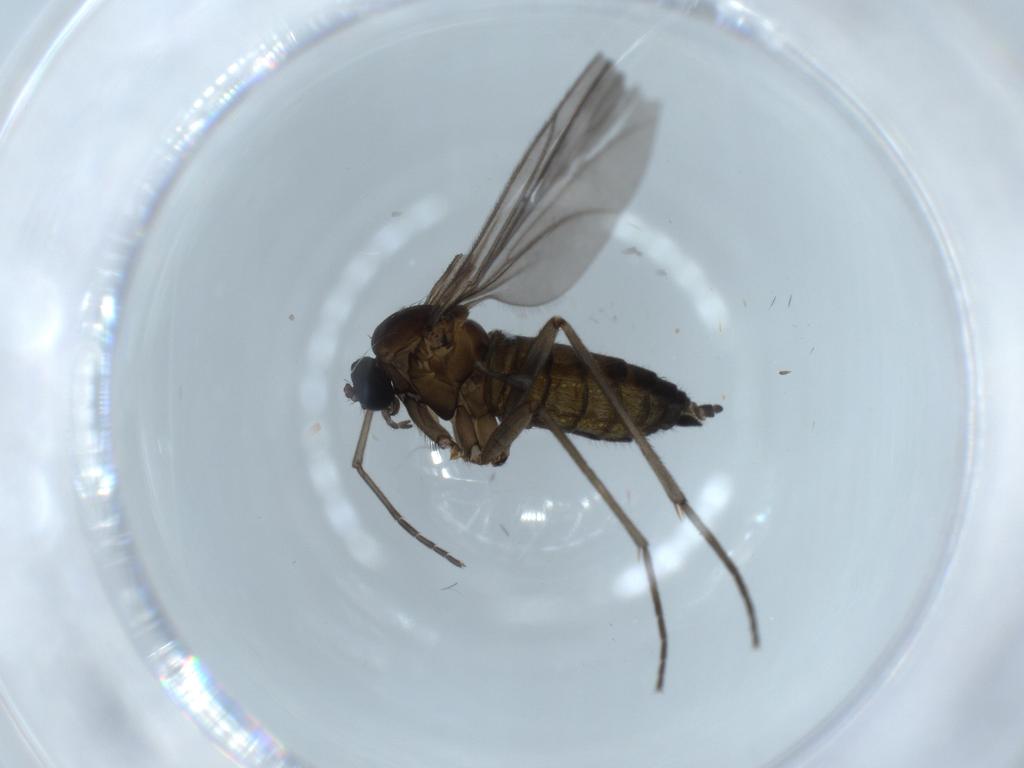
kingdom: Animalia
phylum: Arthropoda
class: Insecta
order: Diptera
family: Sciaridae
